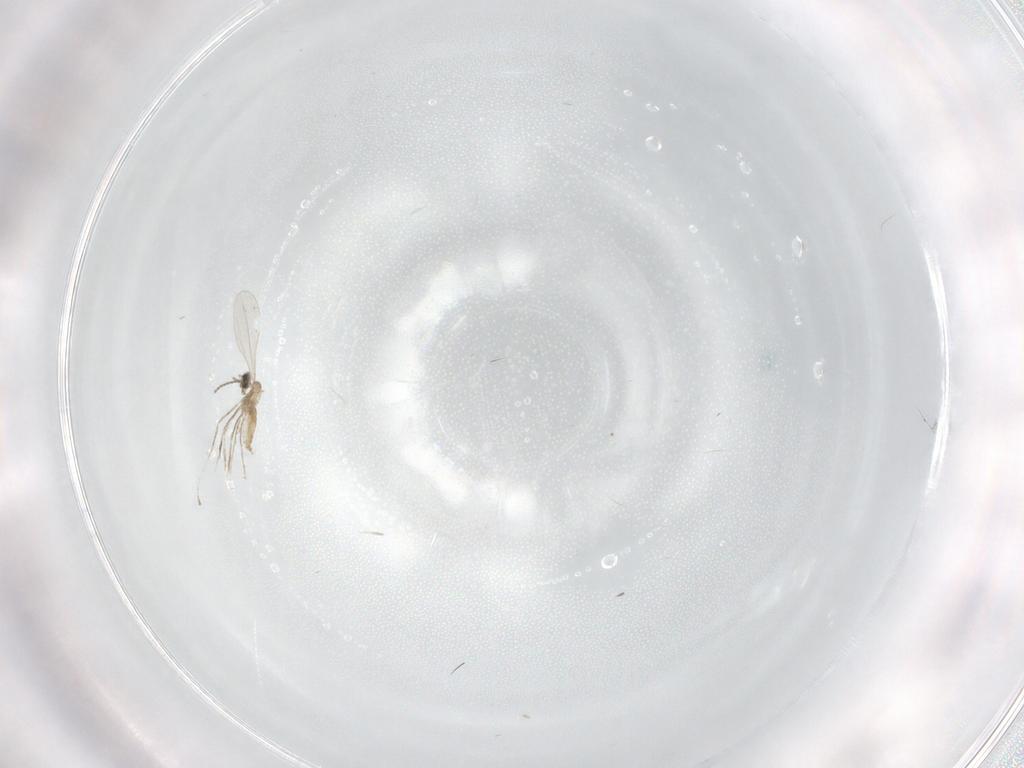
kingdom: Animalia
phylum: Arthropoda
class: Insecta
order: Diptera
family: Cecidomyiidae
